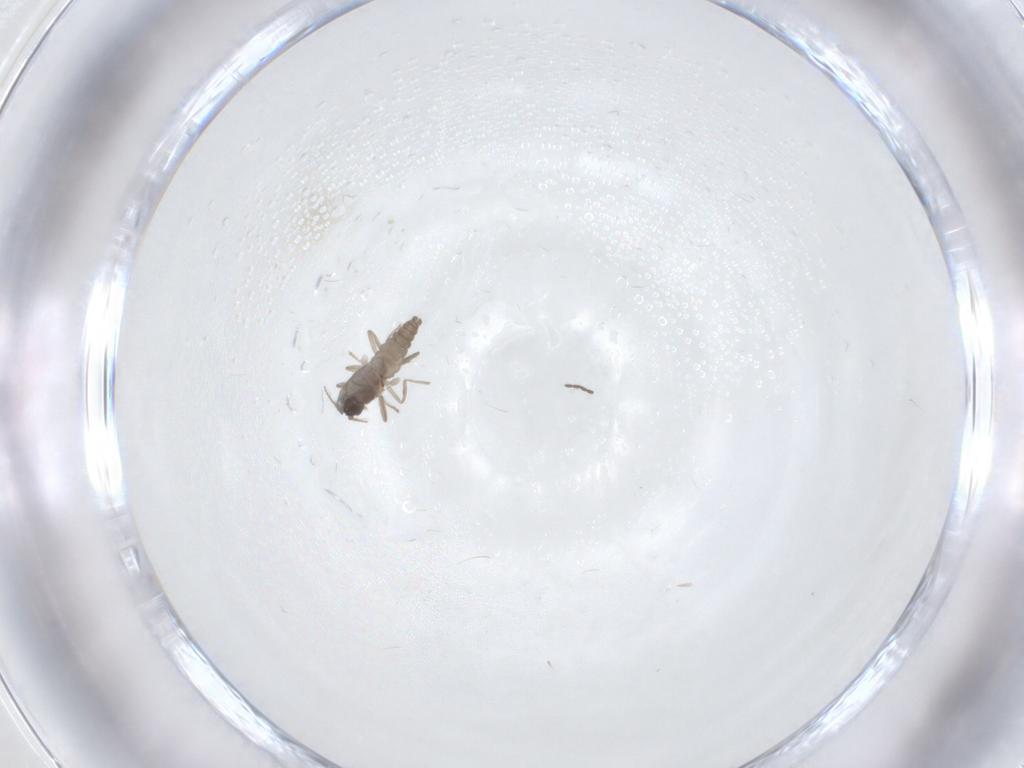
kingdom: Animalia
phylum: Arthropoda
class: Insecta
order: Diptera
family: Cecidomyiidae
